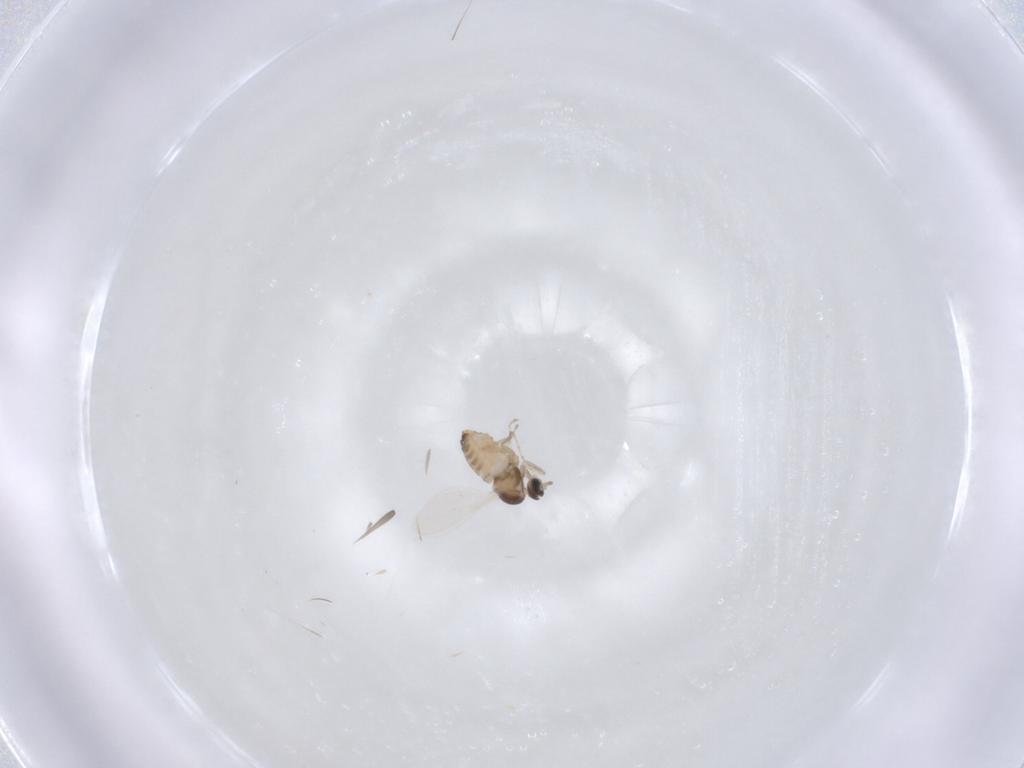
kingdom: Animalia
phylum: Arthropoda
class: Insecta
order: Diptera
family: Cecidomyiidae
